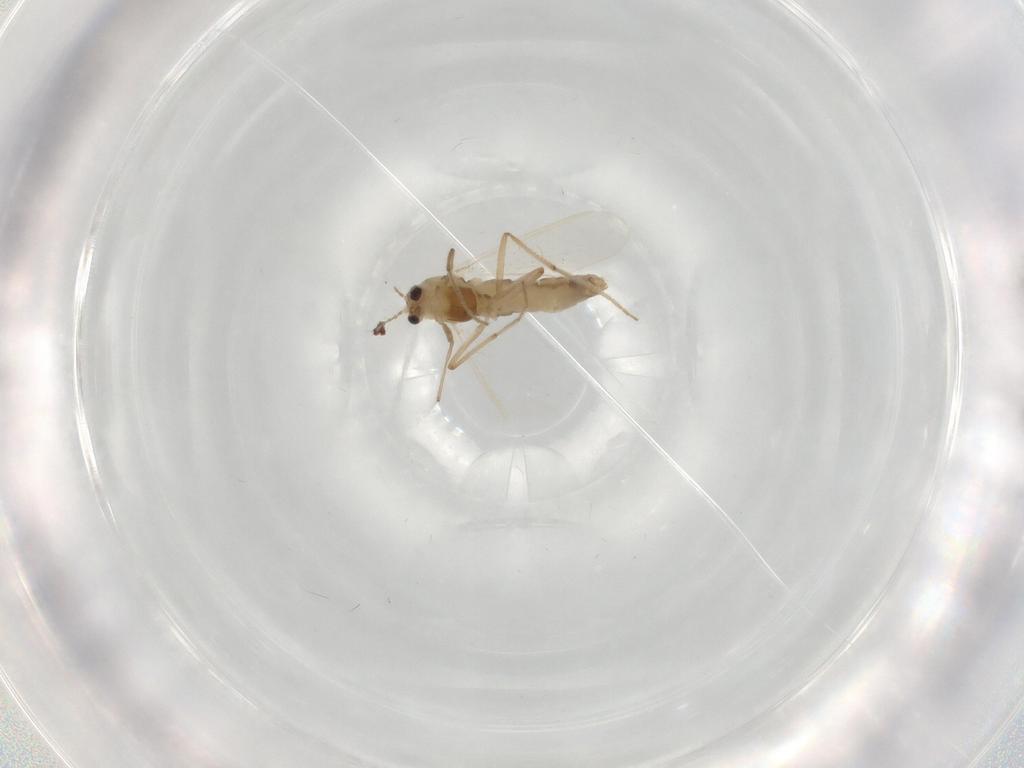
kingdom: Animalia
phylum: Arthropoda
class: Insecta
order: Diptera
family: Chironomidae
